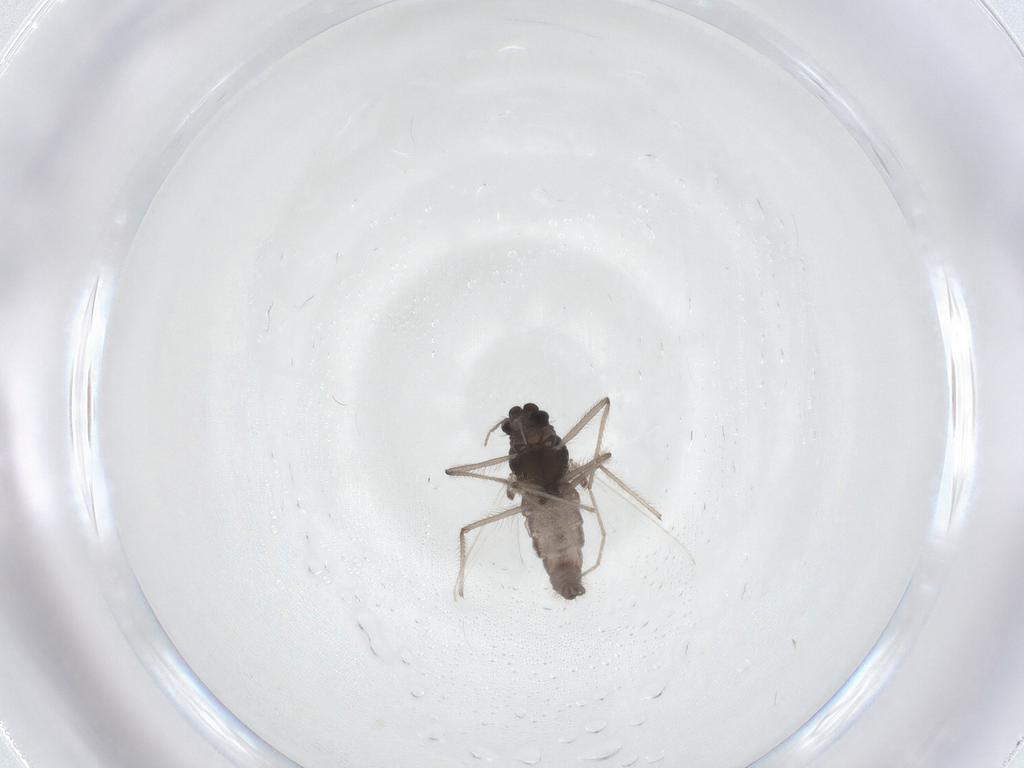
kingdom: Animalia
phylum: Arthropoda
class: Insecta
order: Diptera
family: Chironomidae
